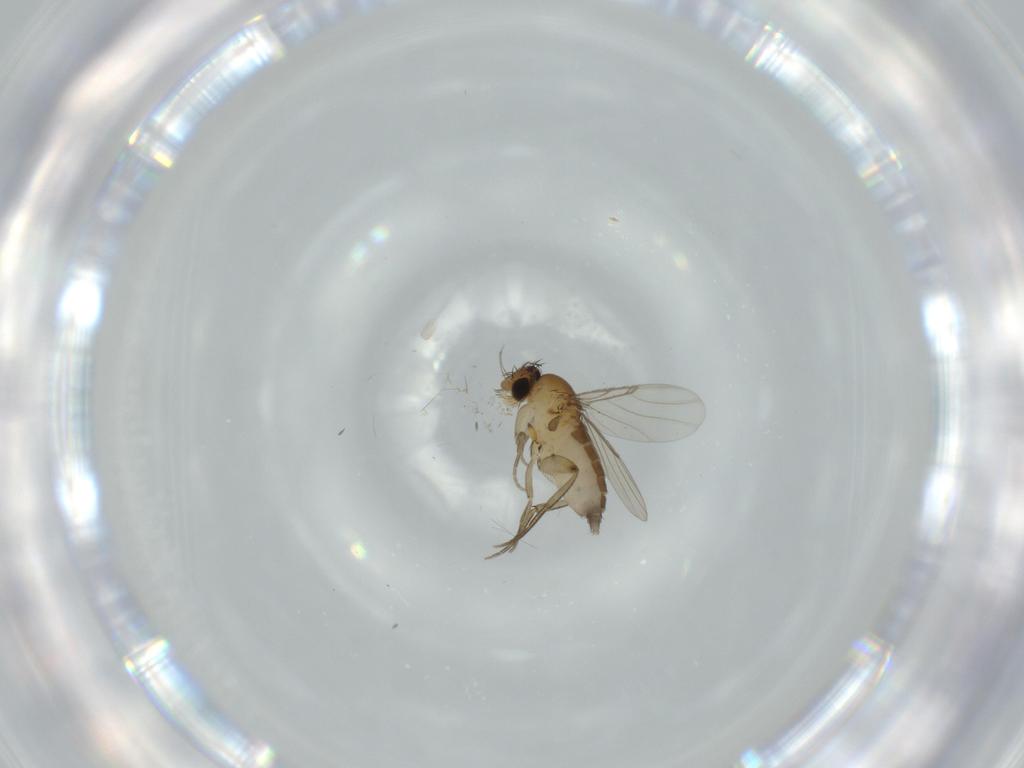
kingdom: Animalia
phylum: Arthropoda
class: Insecta
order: Diptera
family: Phoridae
